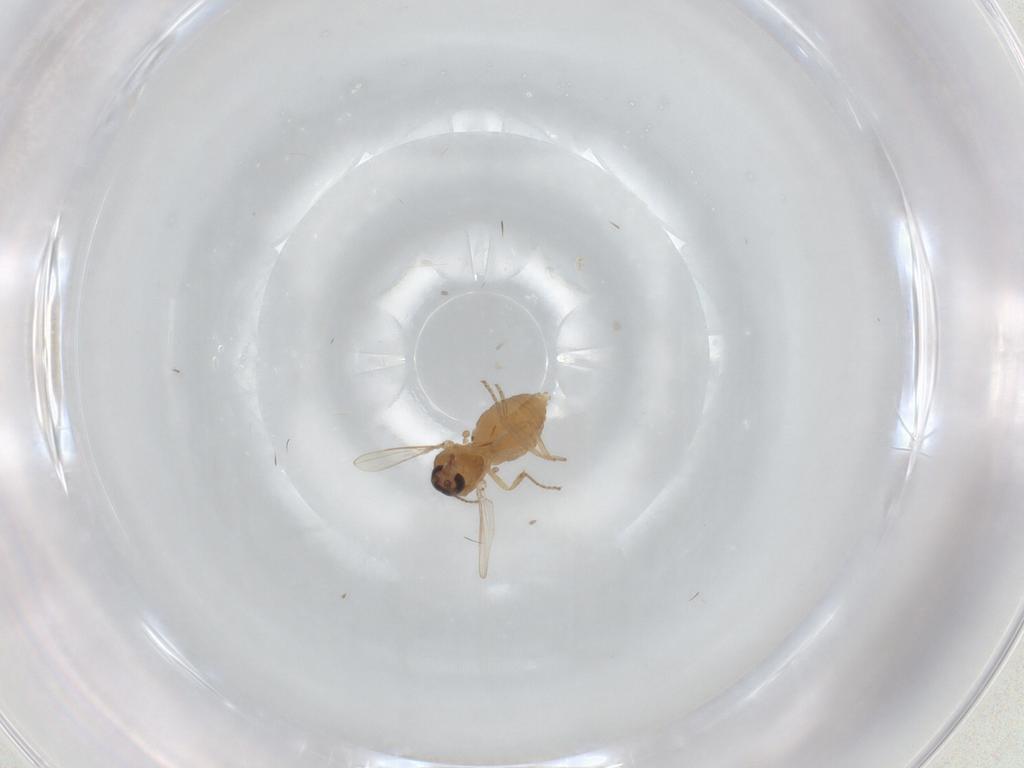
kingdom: Animalia
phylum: Arthropoda
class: Insecta
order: Diptera
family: Ceratopogonidae
